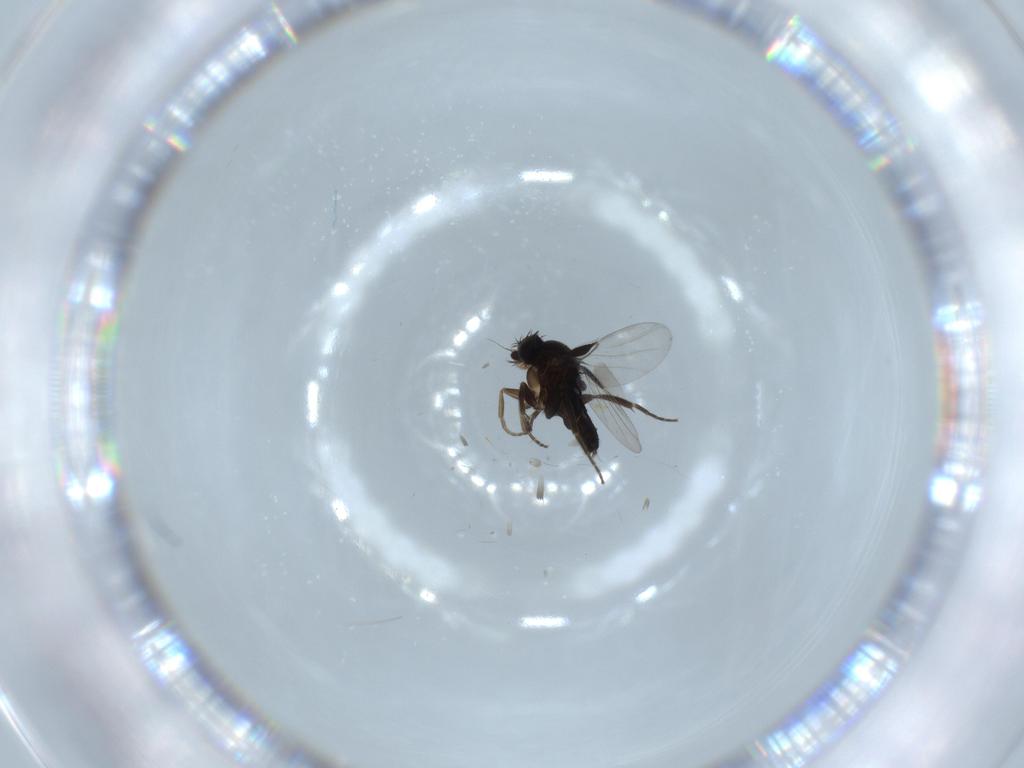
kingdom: Animalia
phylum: Arthropoda
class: Insecta
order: Diptera
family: Phoridae
